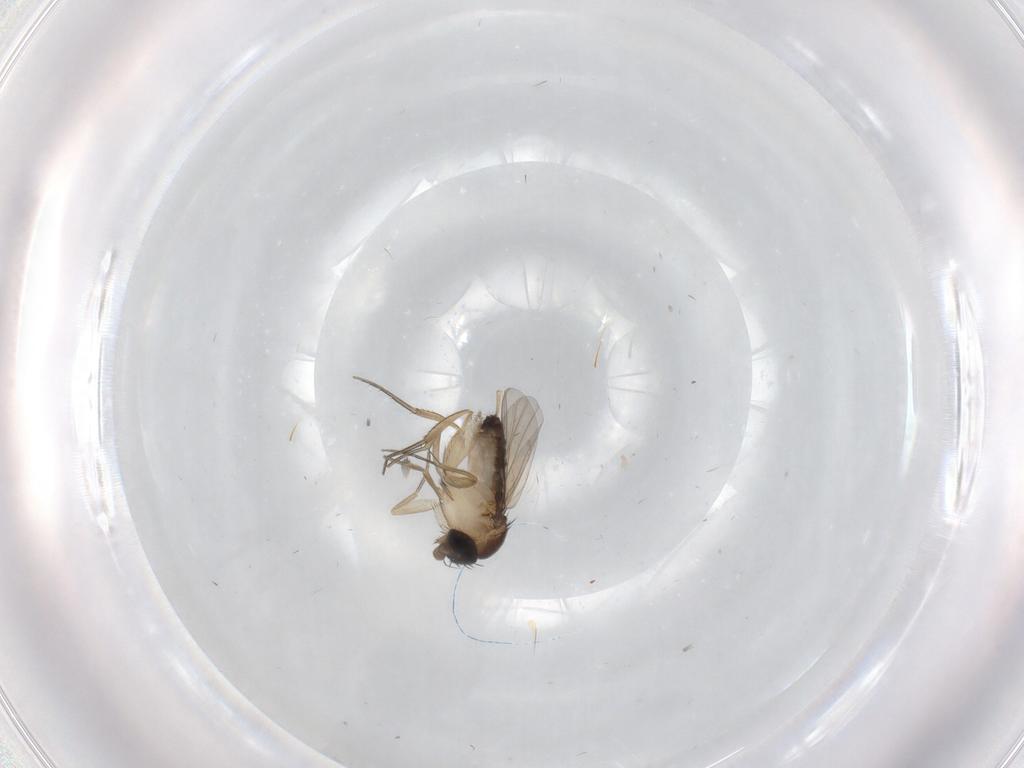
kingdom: Animalia
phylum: Arthropoda
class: Insecta
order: Diptera
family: Phoridae
